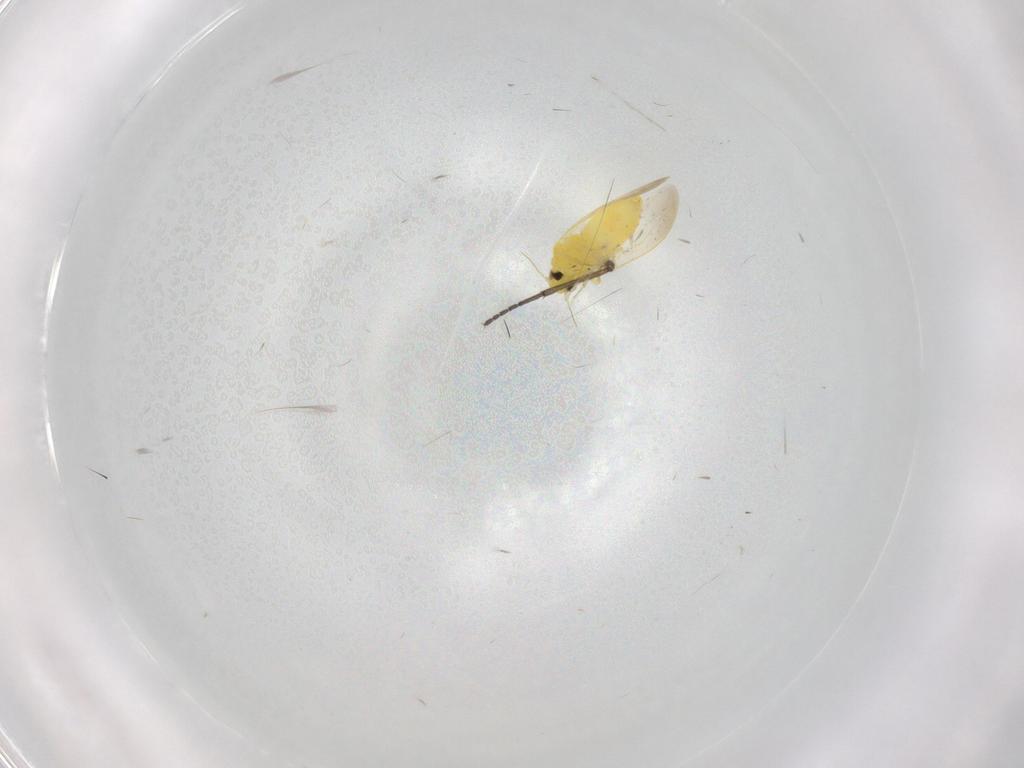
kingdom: Animalia
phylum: Arthropoda
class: Insecta
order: Hemiptera
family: Aleyrodidae
